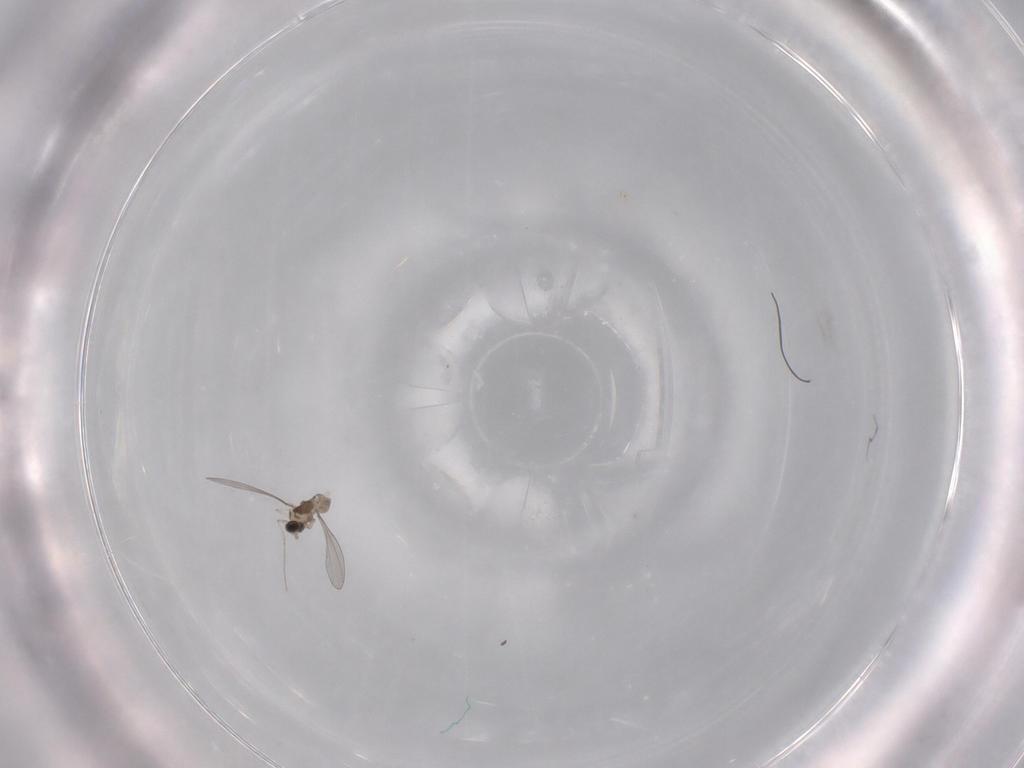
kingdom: Animalia
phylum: Arthropoda
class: Insecta
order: Diptera
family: Cecidomyiidae
